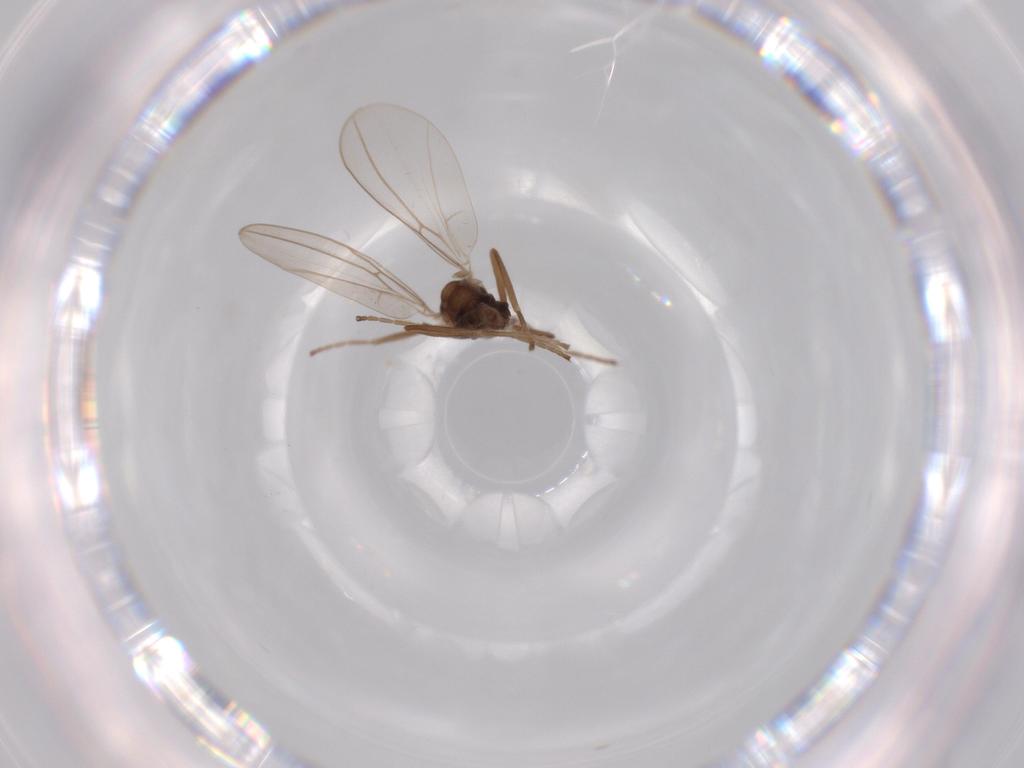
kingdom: Animalia
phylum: Arthropoda
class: Insecta
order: Diptera
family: Cecidomyiidae
